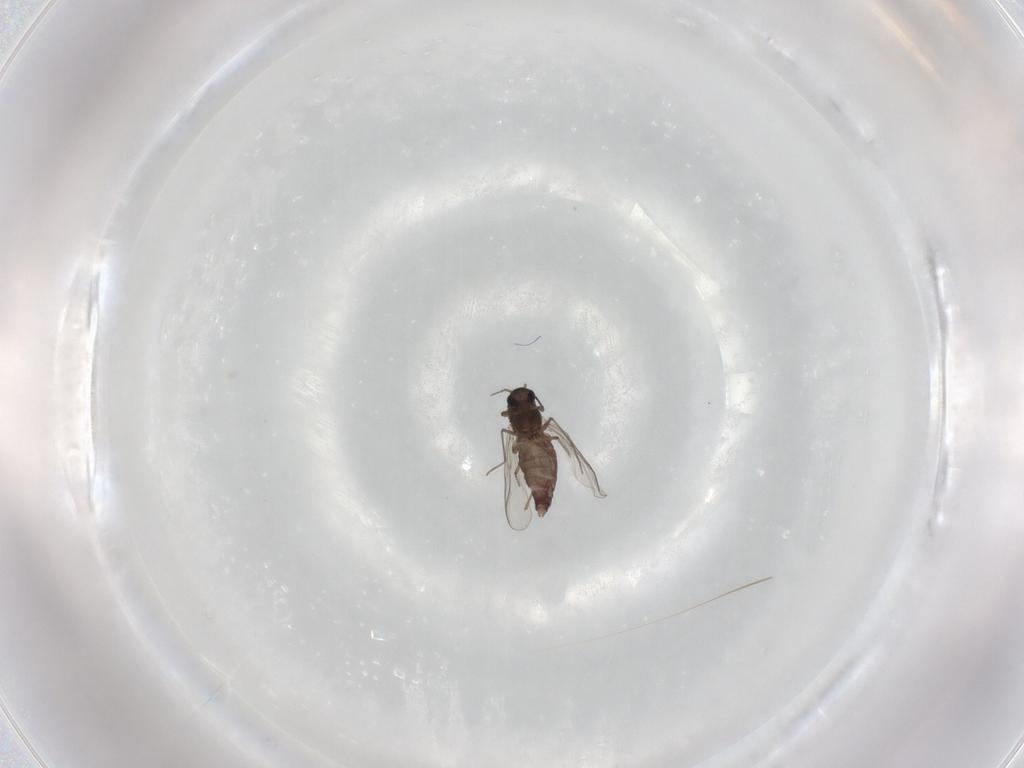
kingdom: Animalia
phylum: Arthropoda
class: Insecta
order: Diptera
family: Chironomidae
